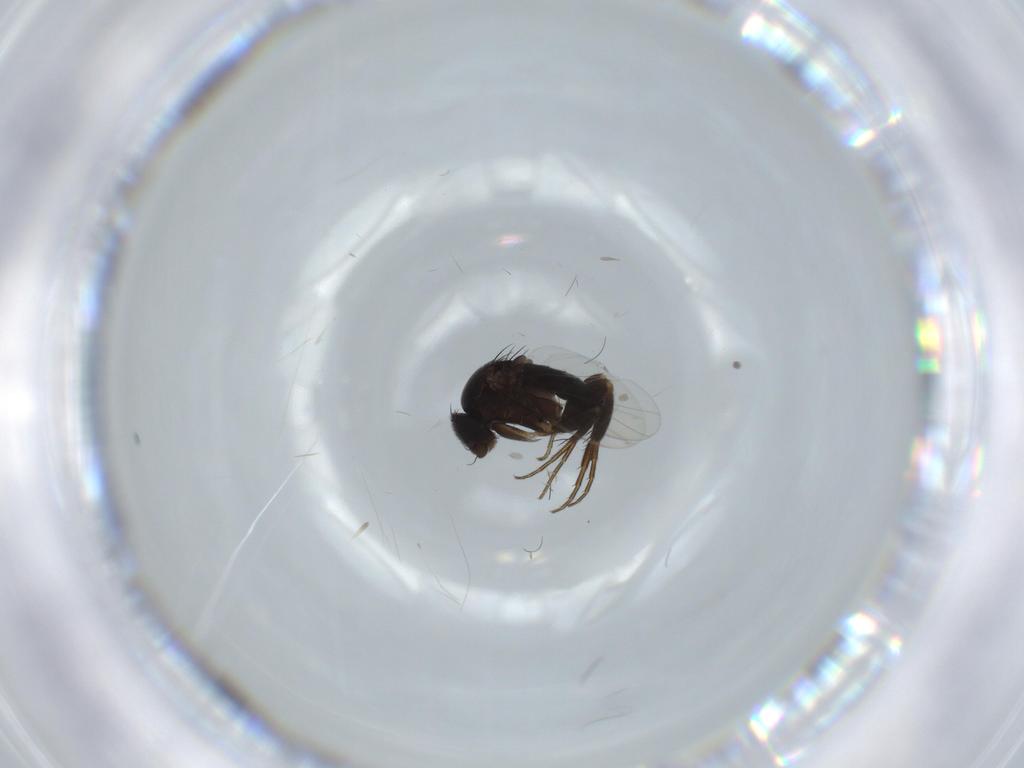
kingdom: Animalia
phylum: Arthropoda
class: Insecta
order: Diptera
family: Phoridae
